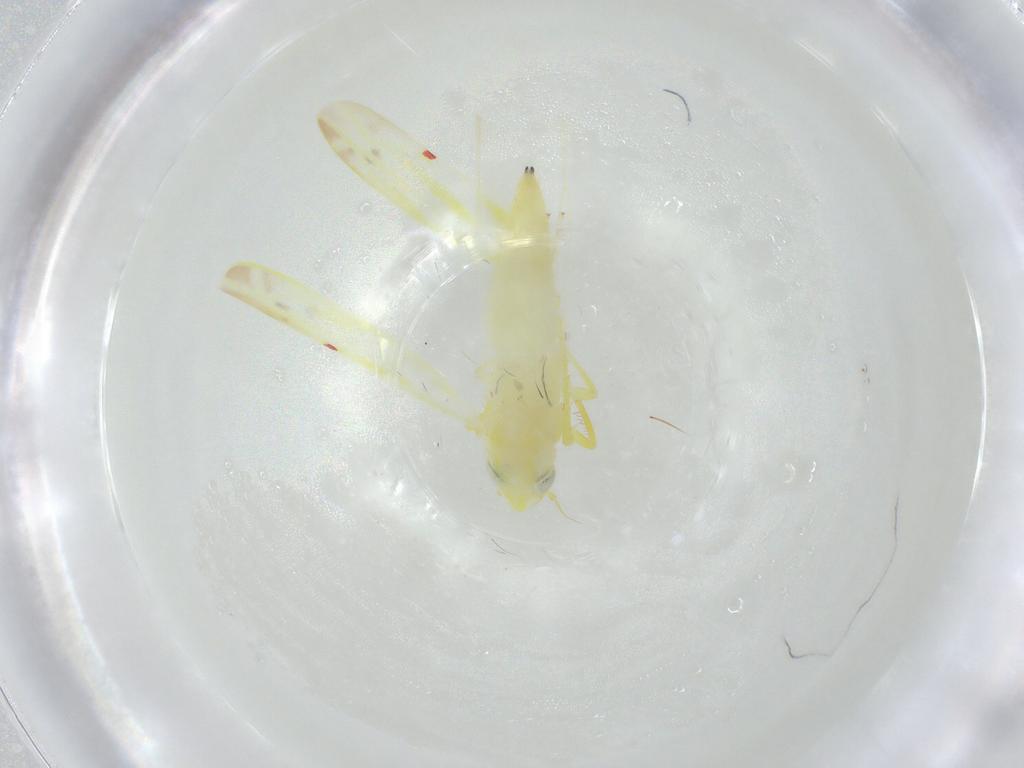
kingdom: Animalia
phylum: Arthropoda
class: Insecta
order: Hemiptera
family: Cicadellidae
